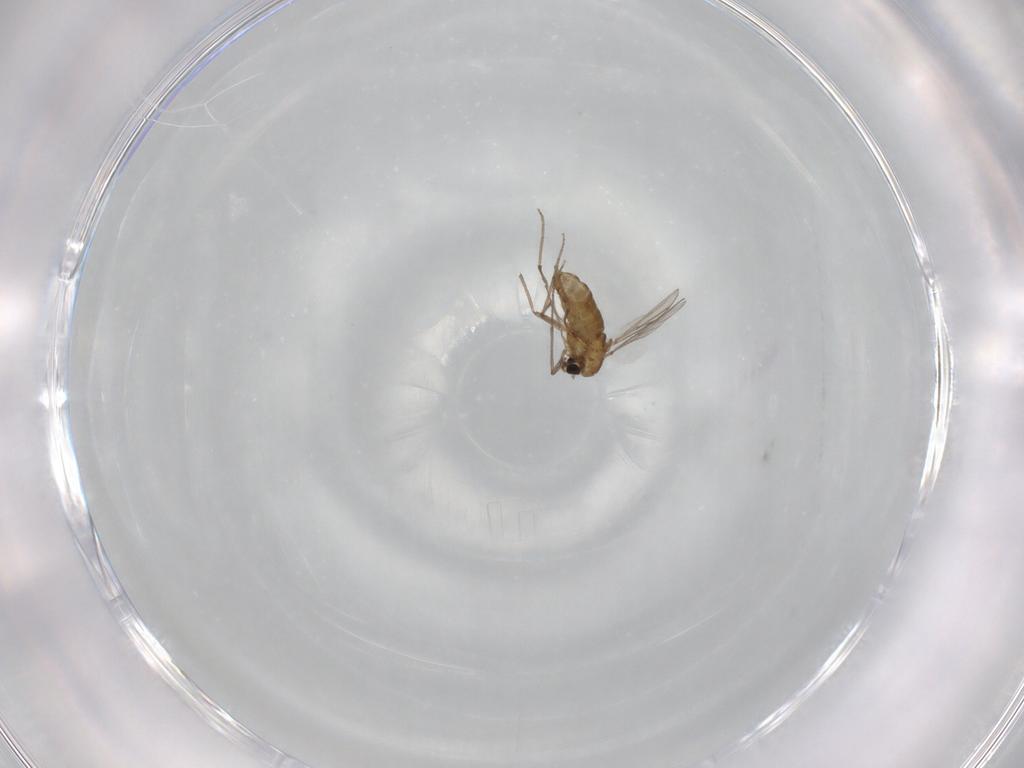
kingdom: Animalia
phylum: Arthropoda
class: Insecta
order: Diptera
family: Chironomidae
